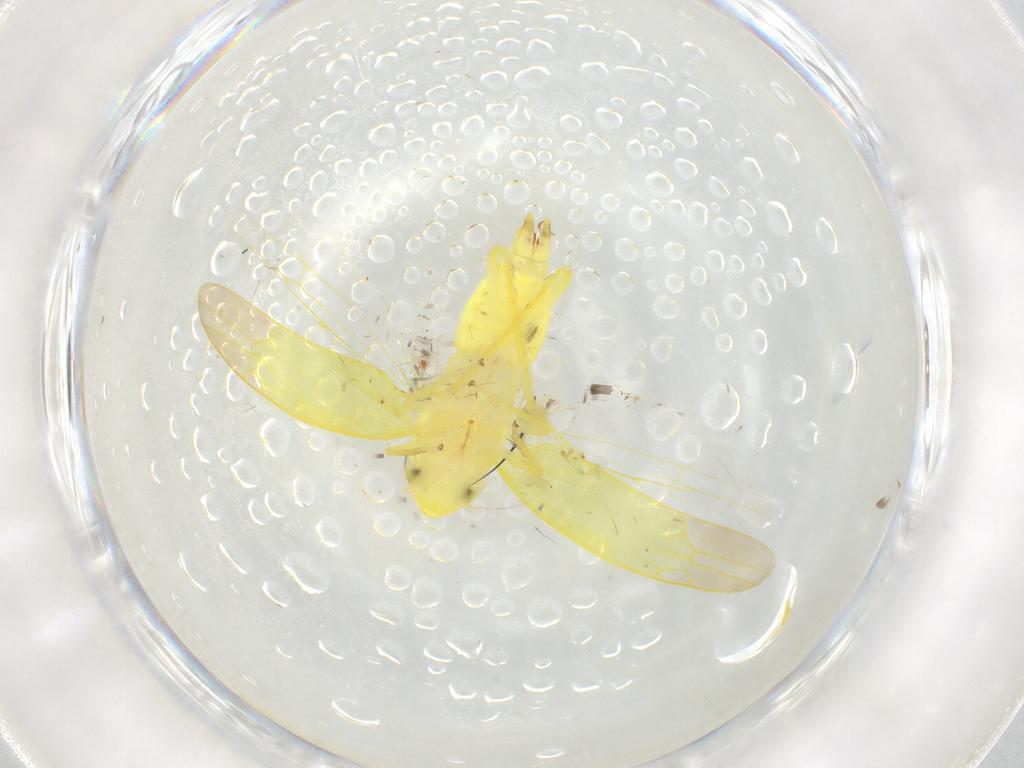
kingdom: Animalia
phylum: Arthropoda
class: Insecta
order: Hemiptera
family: Cicadellidae
